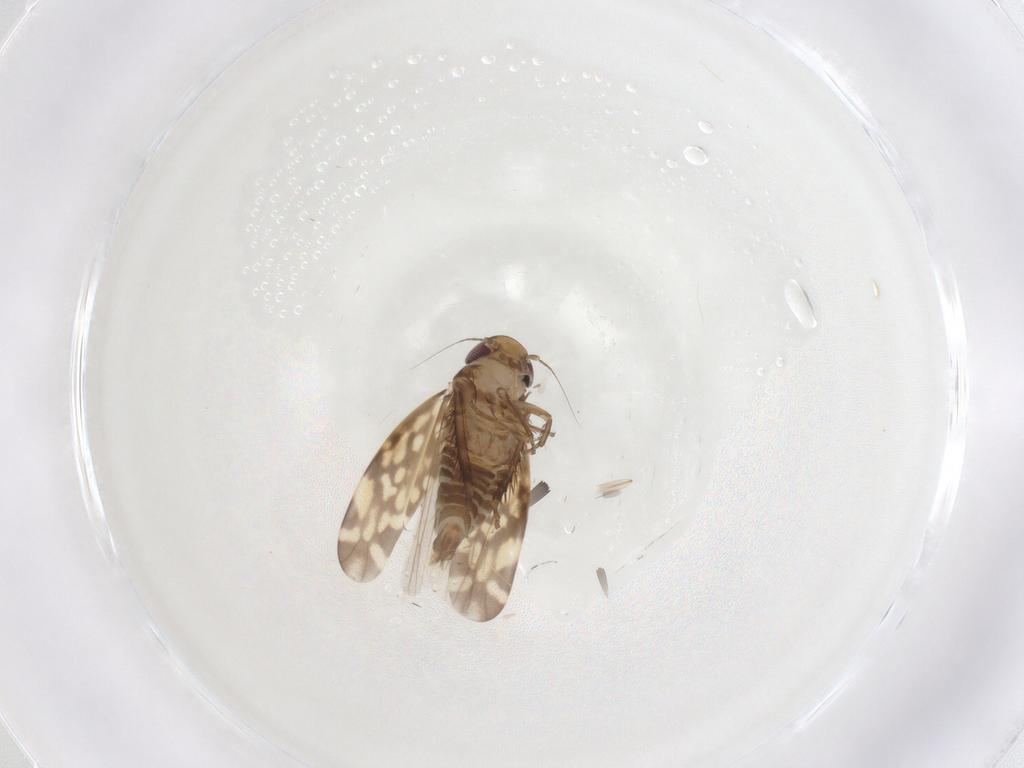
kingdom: Animalia
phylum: Arthropoda
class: Insecta
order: Hemiptera
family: Cicadellidae
